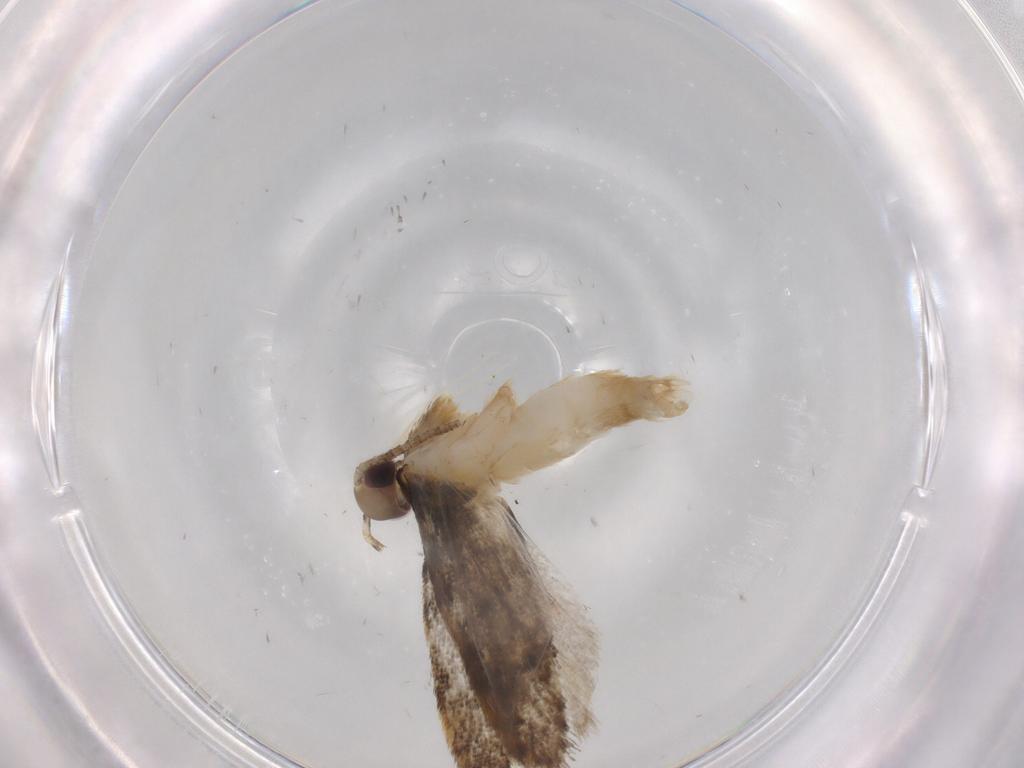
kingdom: Animalia
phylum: Arthropoda
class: Insecta
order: Lepidoptera
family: Autostichidae
